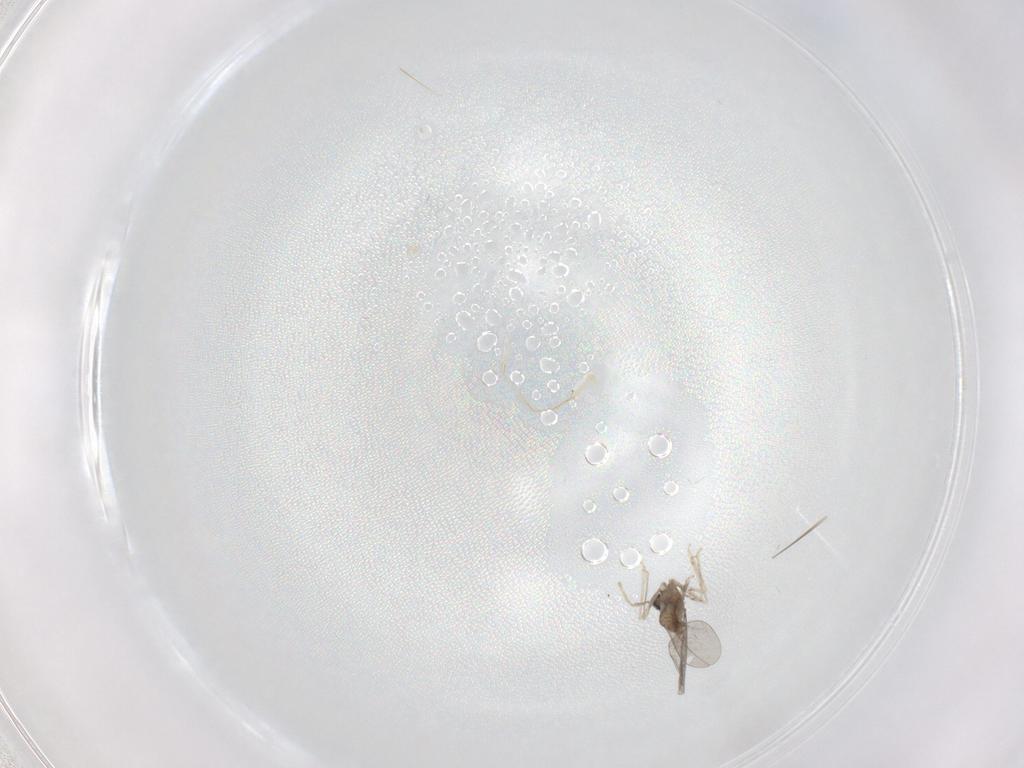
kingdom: Animalia
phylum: Arthropoda
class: Insecta
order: Diptera
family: Chironomidae
